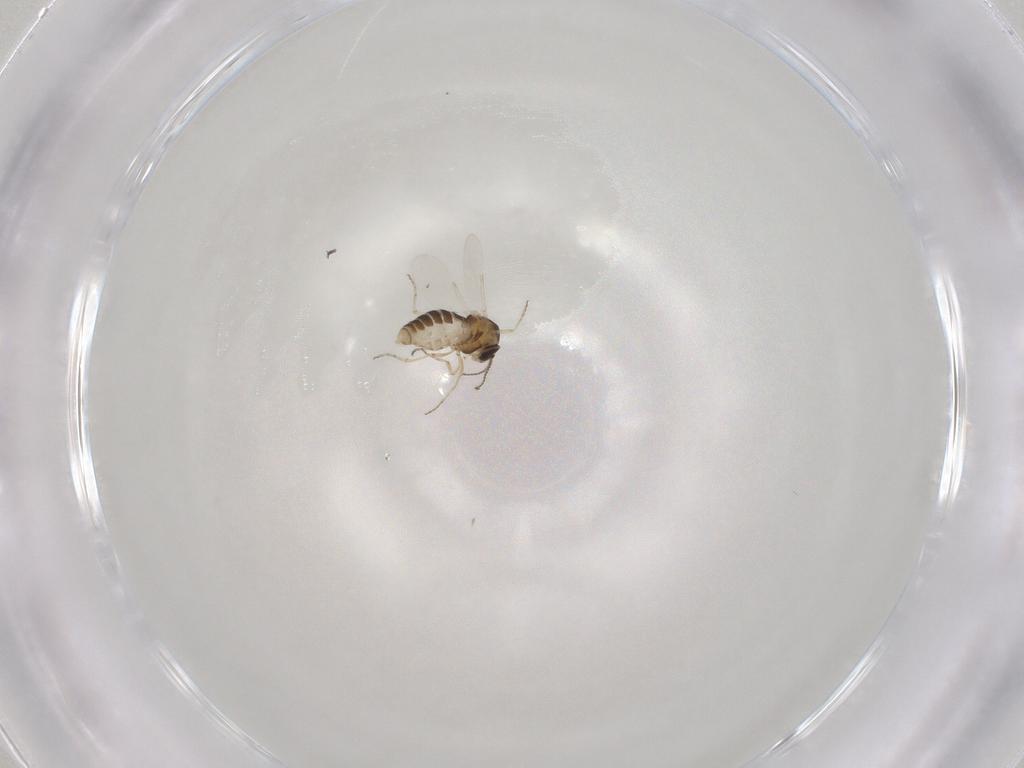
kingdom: Animalia
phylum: Arthropoda
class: Insecta
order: Diptera
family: Ceratopogonidae
